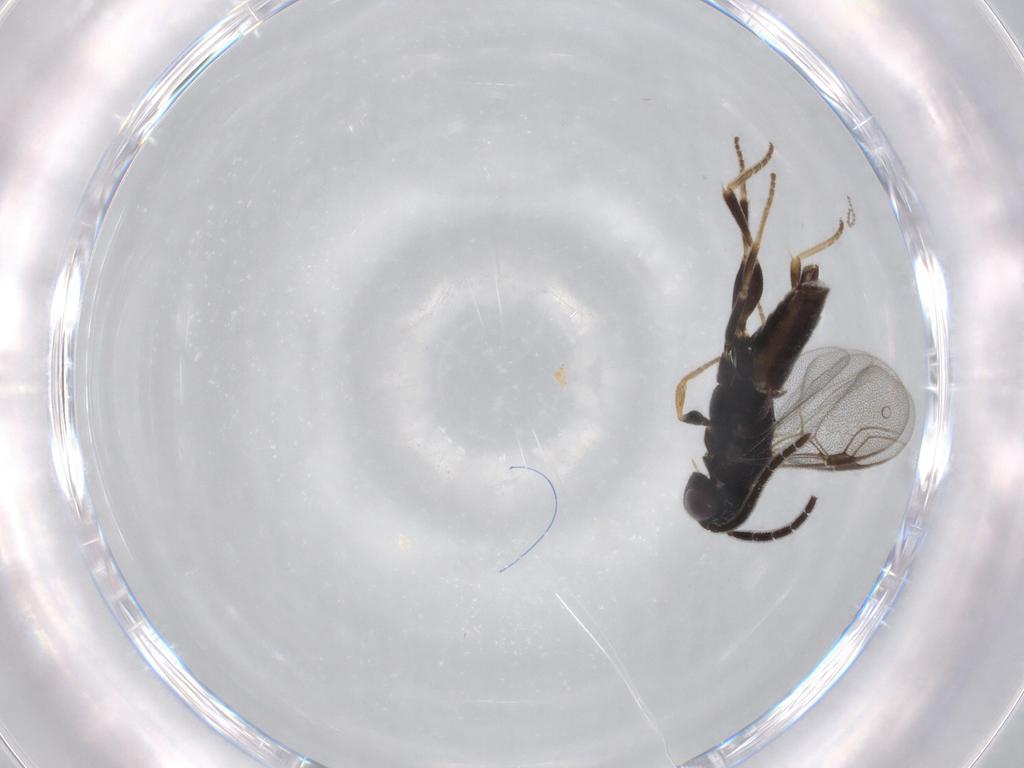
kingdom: Animalia
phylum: Arthropoda
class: Insecta
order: Hymenoptera
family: Dryinidae
